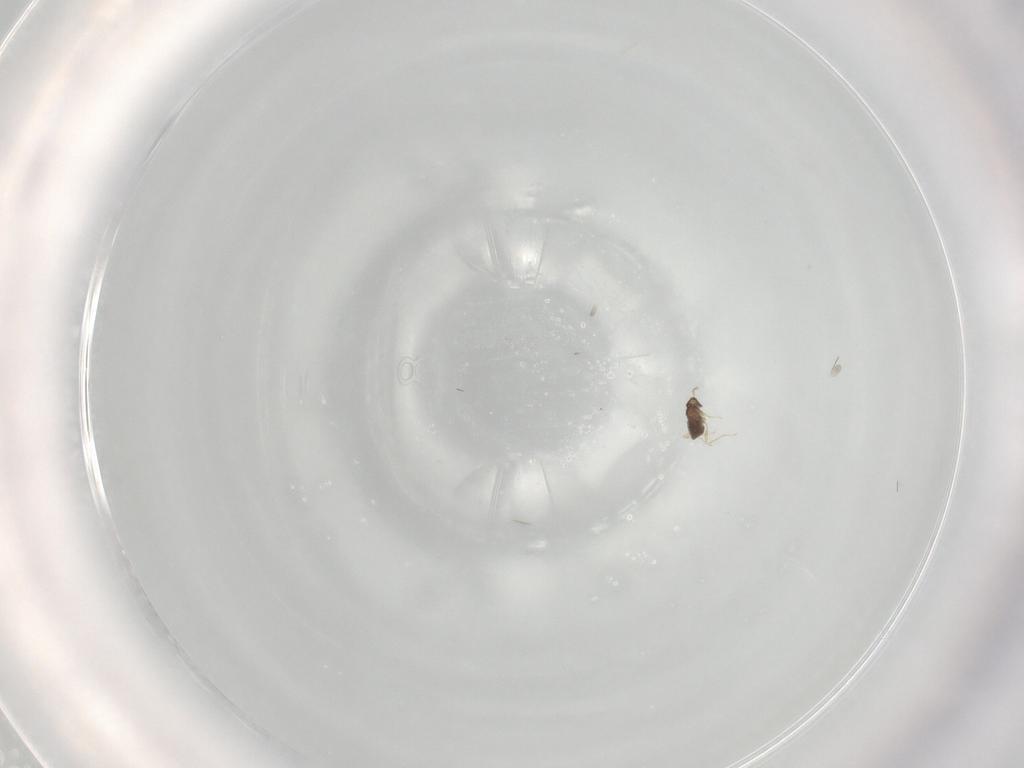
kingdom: Animalia
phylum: Arthropoda
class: Insecta
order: Hymenoptera
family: Mymaridae
